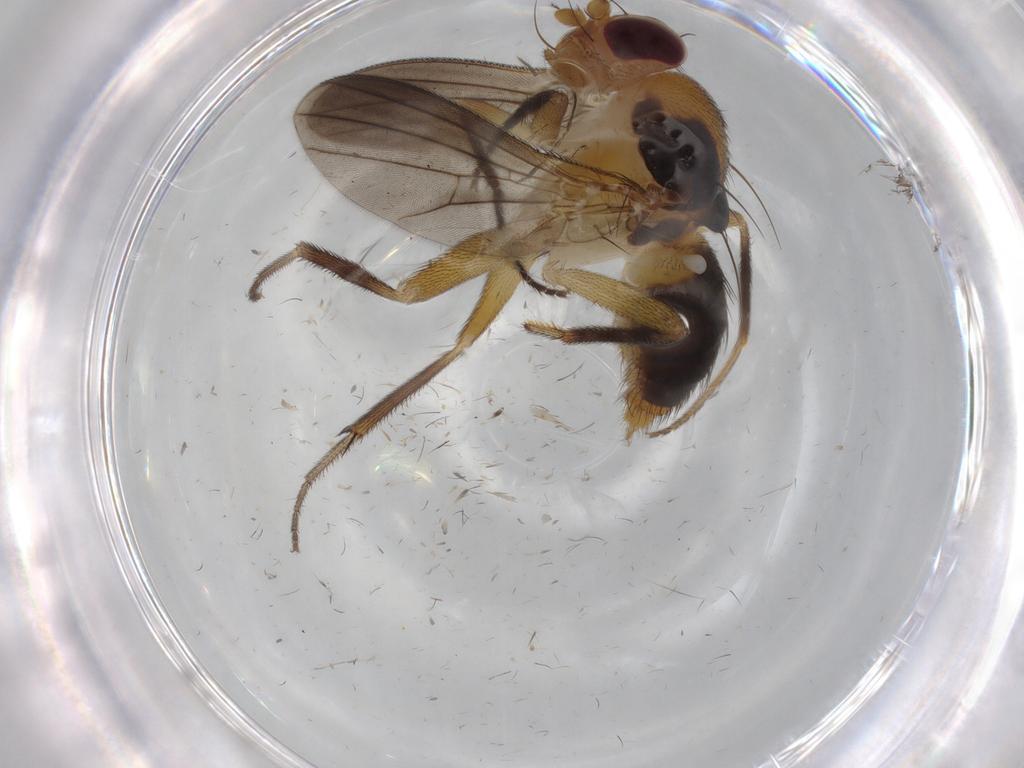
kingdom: Animalia
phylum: Arthropoda
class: Insecta
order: Diptera
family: Clusiidae
